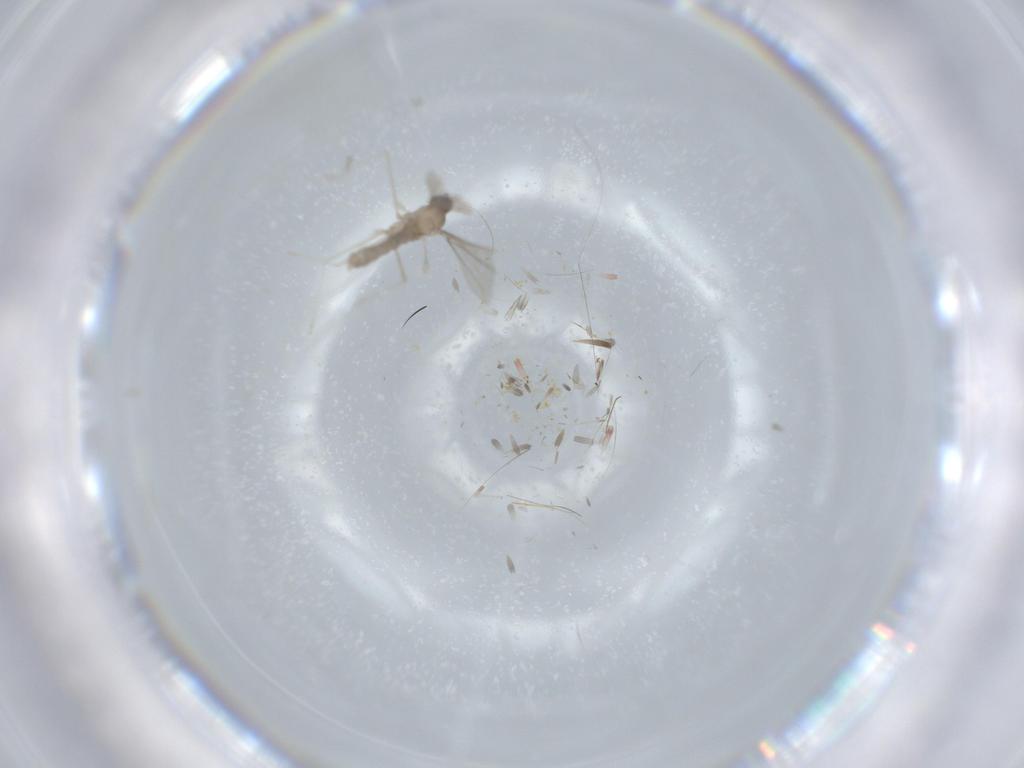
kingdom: Animalia
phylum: Arthropoda
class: Insecta
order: Diptera
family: Cecidomyiidae
